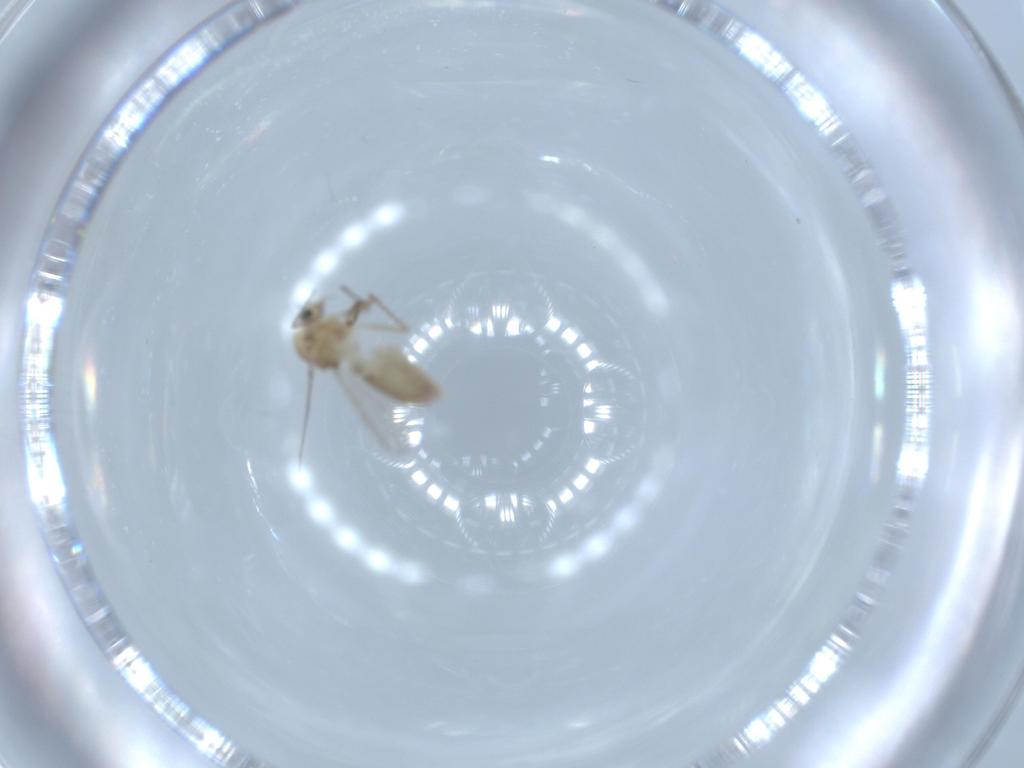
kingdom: Animalia
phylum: Arthropoda
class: Insecta
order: Diptera
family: Chironomidae
